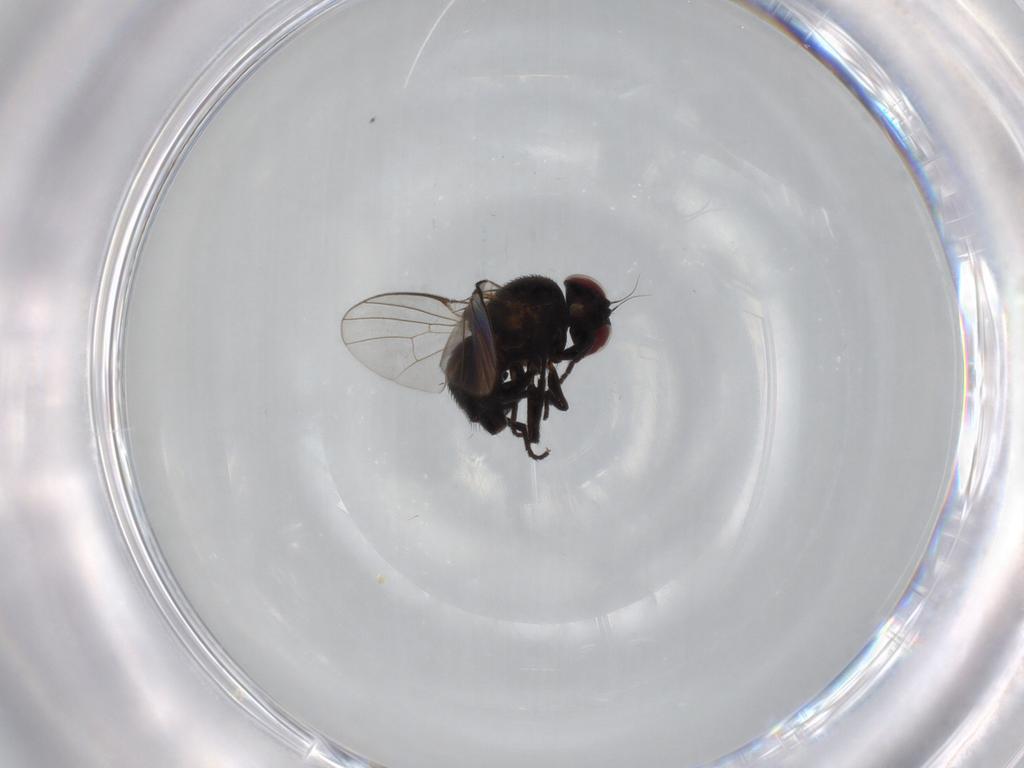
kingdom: Animalia
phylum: Arthropoda
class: Insecta
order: Diptera
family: Agromyzidae
